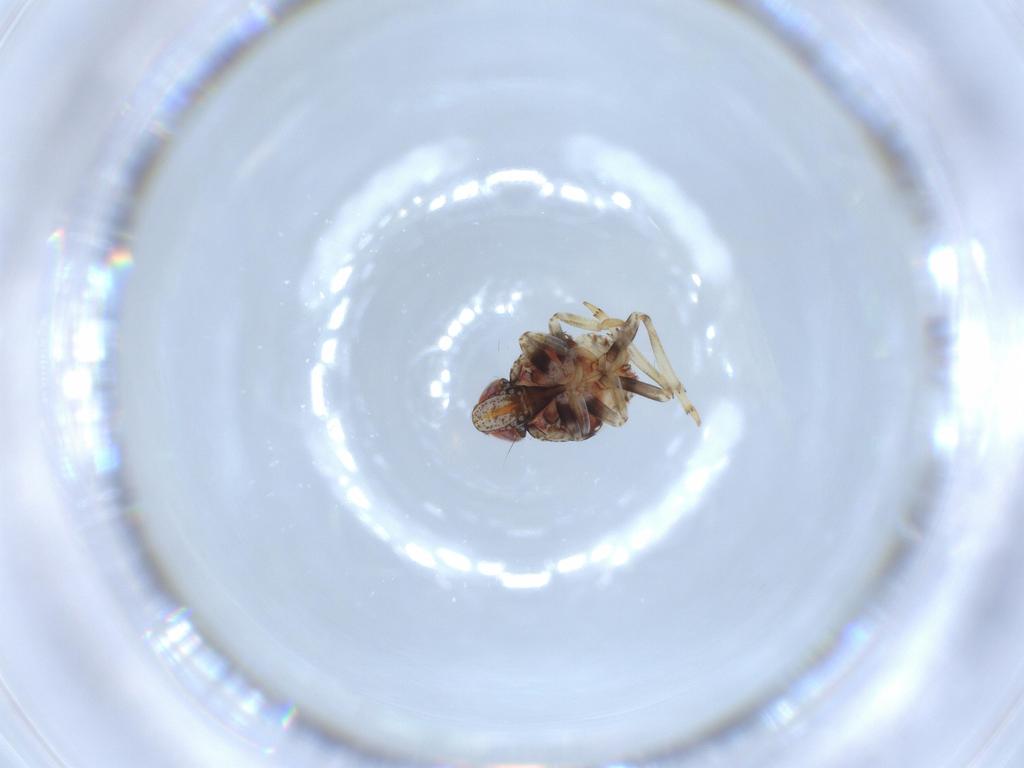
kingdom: Animalia
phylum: Arthropoda
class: Insecta
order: Hemiptera
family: Issidae
